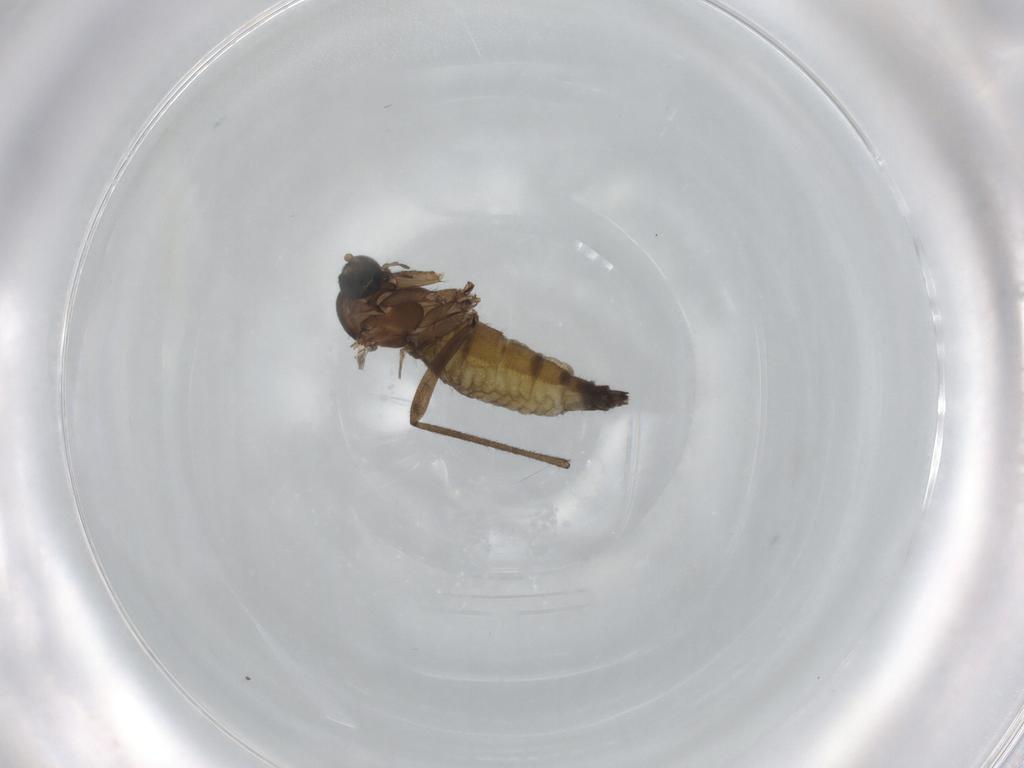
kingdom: Animalia
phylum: Arthropoda
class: Insecta
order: Diptera
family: Sciaridae
